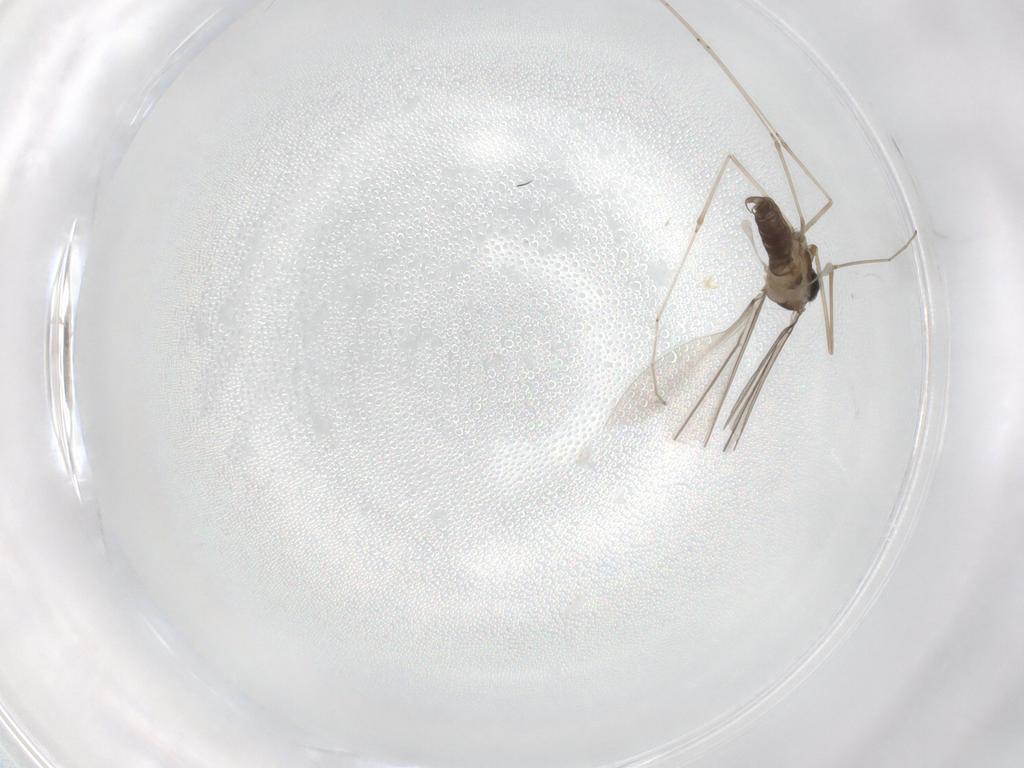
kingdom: Animalia
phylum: Arthropoda
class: Insecta
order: Diptera
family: Cecidomyiidae
